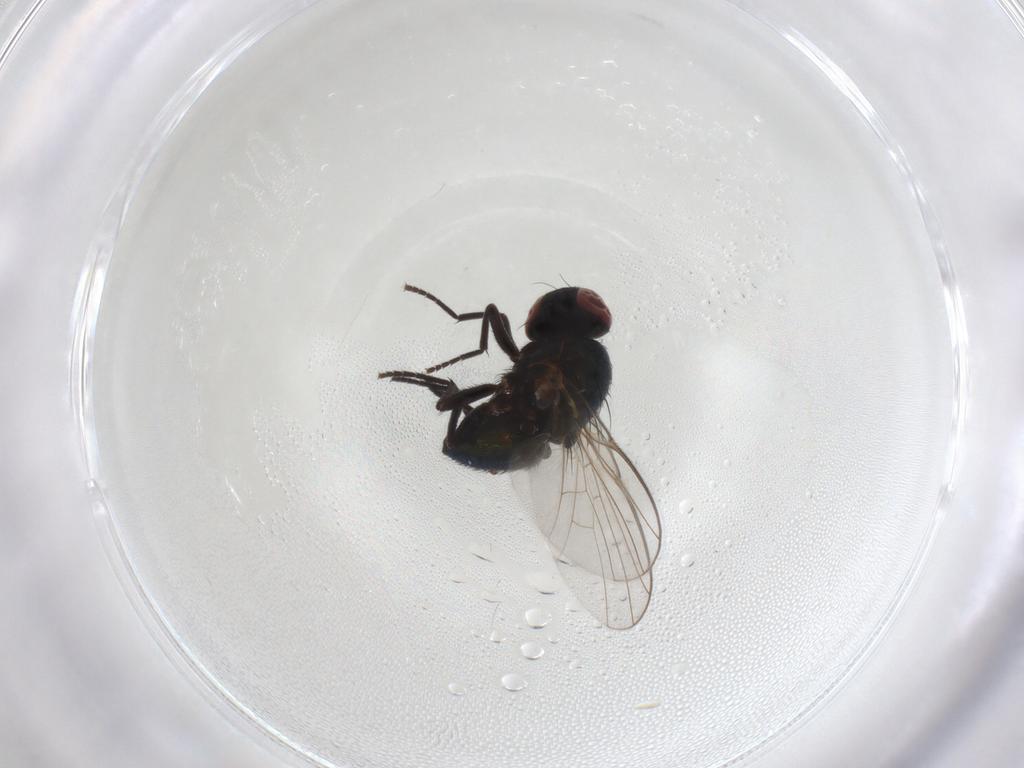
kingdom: Animalia
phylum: Arthropoda
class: Insecta
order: Diptera
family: Agromyzidae
